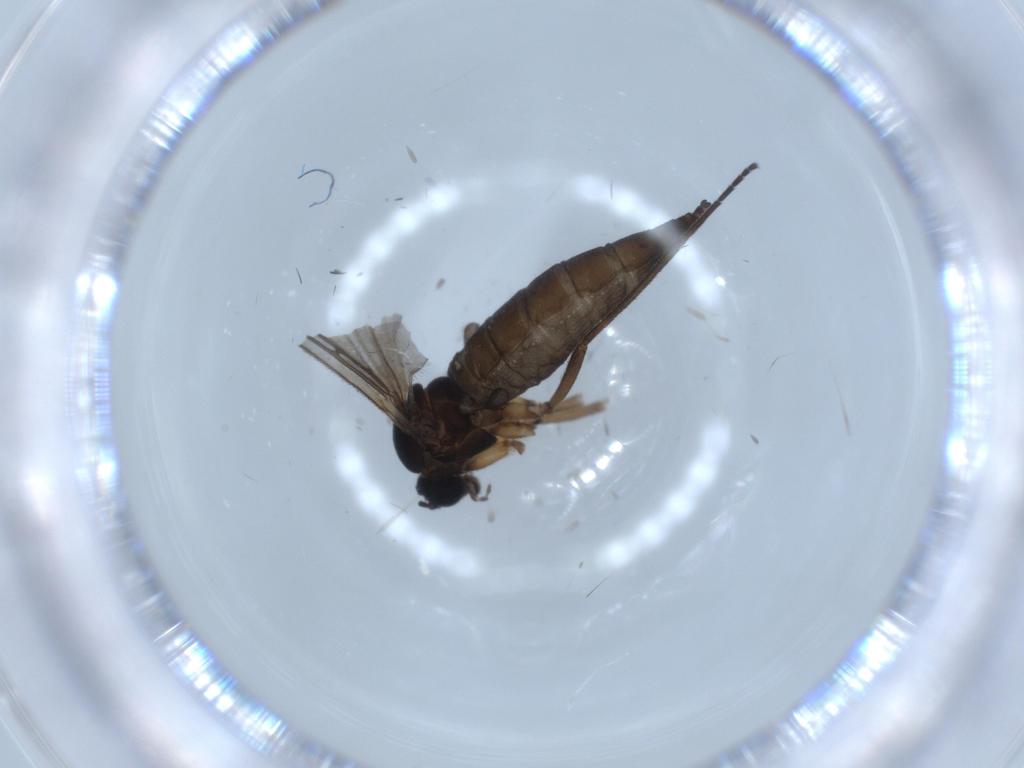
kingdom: Animalia
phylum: Arthropoda
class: Insecta
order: Diptera
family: Sciaridae
